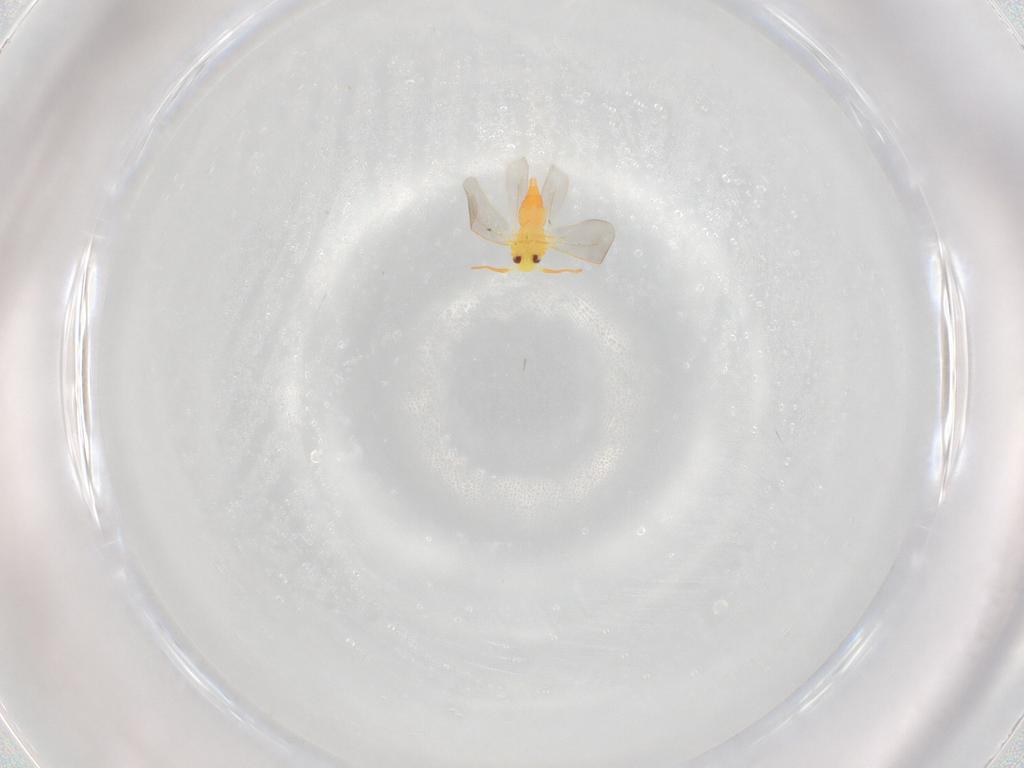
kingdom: Animalia
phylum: Arthropoda
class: Insecta
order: Hemiptera
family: Aleyrodidae
